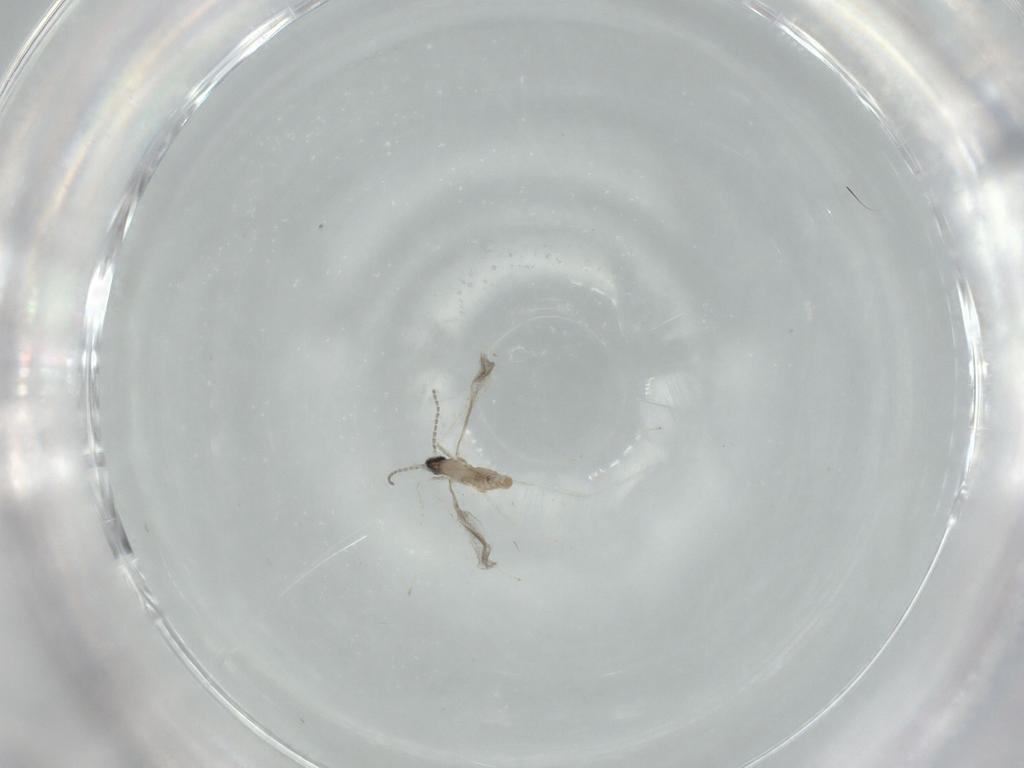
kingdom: Animalia
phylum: Arthropoda
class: Insecta
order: Diptera
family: Cecidomyiidae
